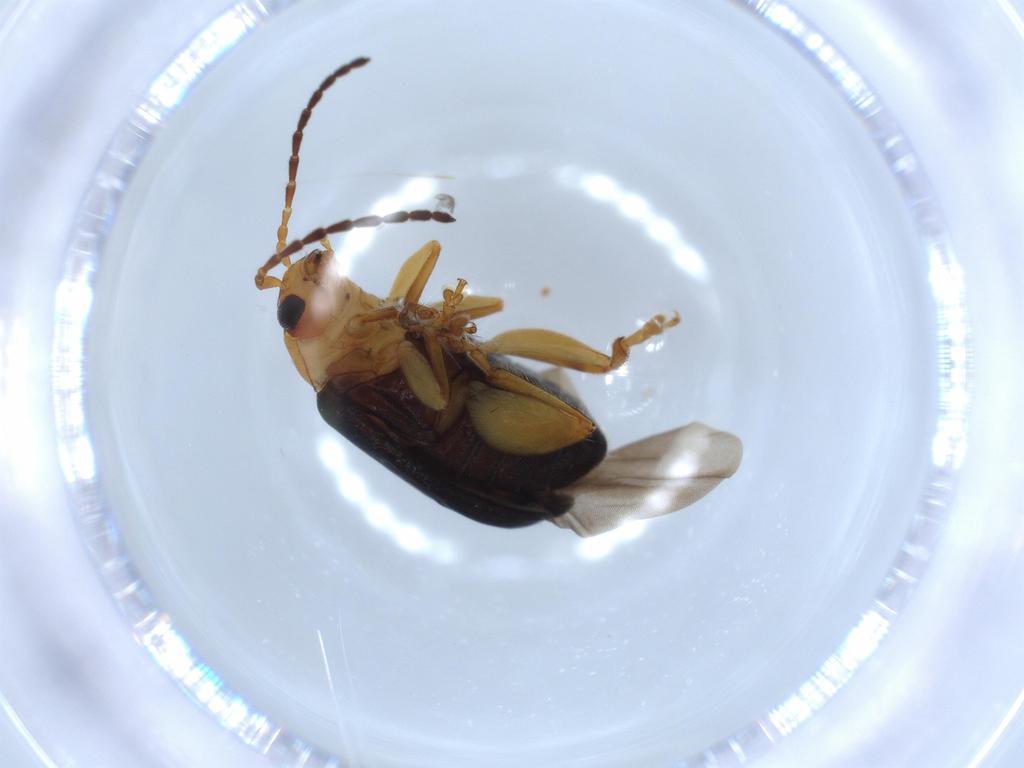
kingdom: Animalia
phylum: Arthropoda
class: Insecta
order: Coleoptera
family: Chrysomelidae
